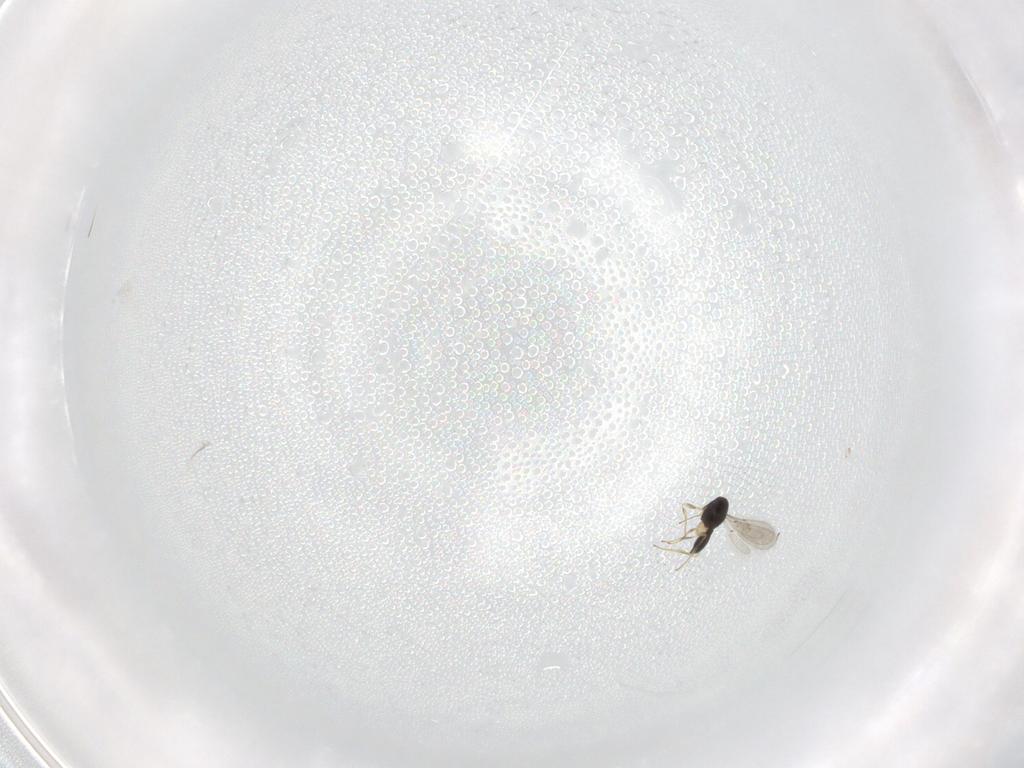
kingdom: Animalia
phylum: Arthropoda
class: Insecta
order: Hymenoptera
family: Scelionidae
